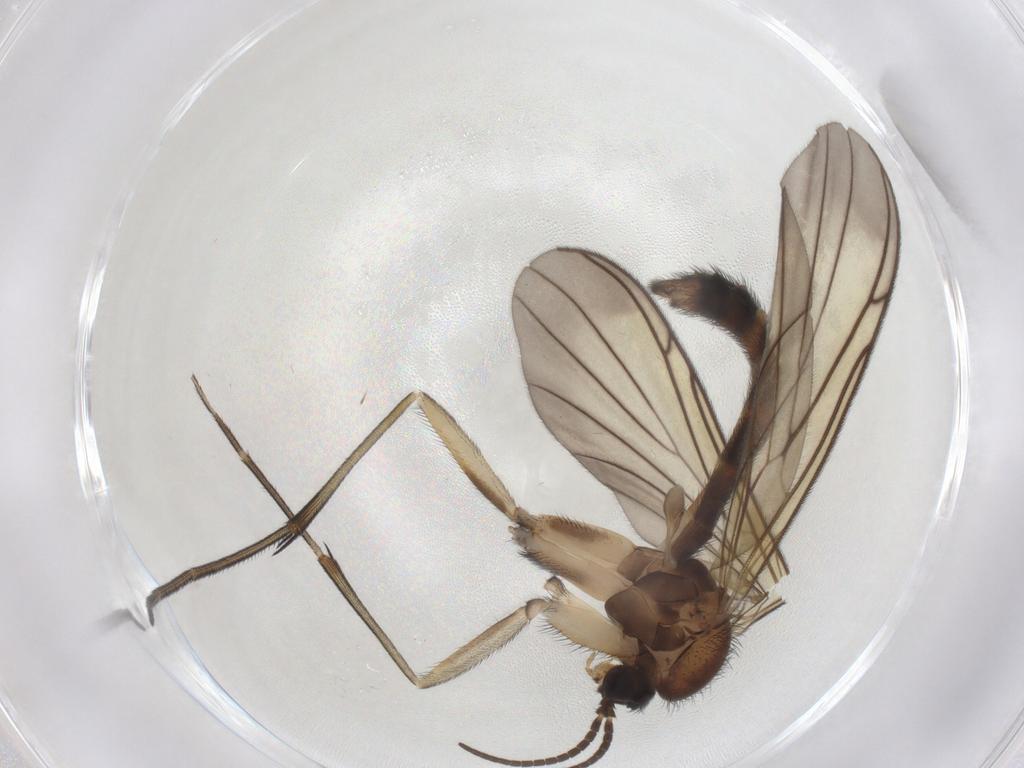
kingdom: Animalia
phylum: Arthropoda
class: Insecta
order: Diptera
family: Keroplatidae
